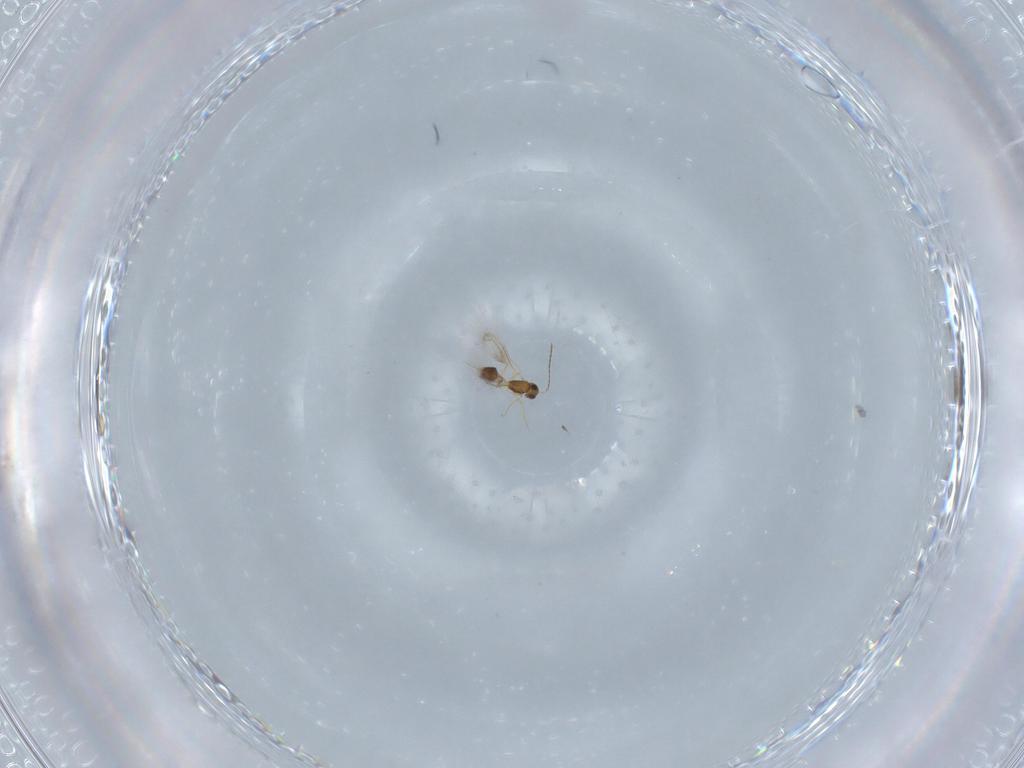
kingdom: Animalia
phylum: Arthropoda
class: Insecta
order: Hymenoptera
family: Mymarommatidae
